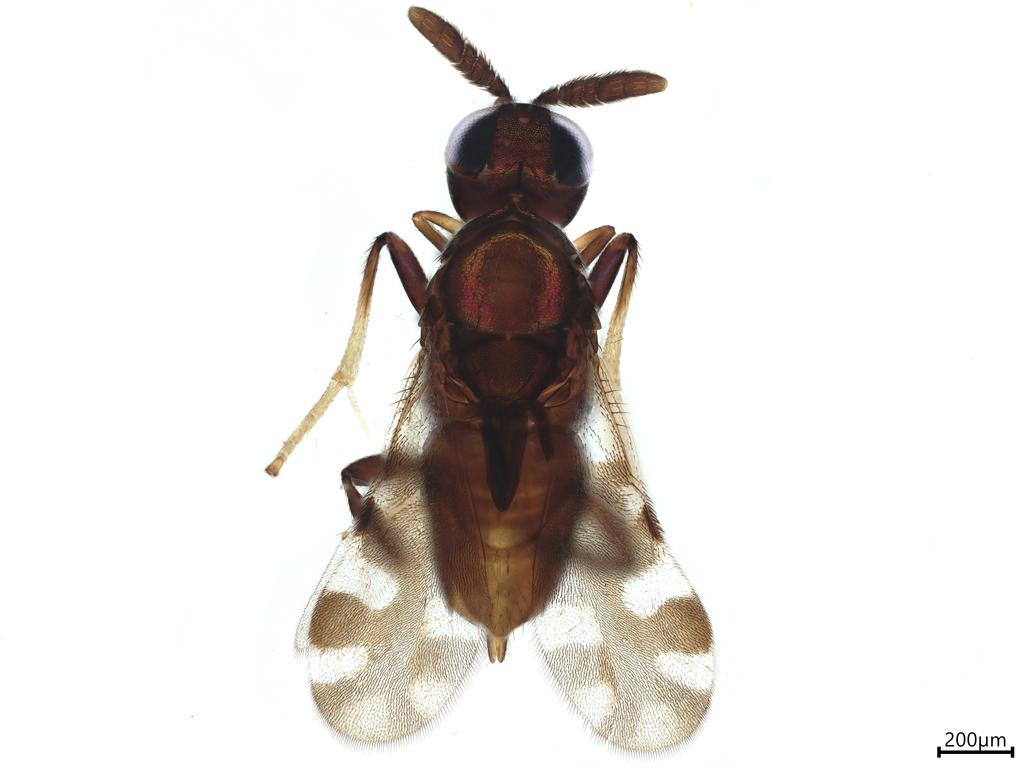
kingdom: Animalia
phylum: Arthropoda
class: Insecta
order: Hymenoptera
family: Encyrtidae
